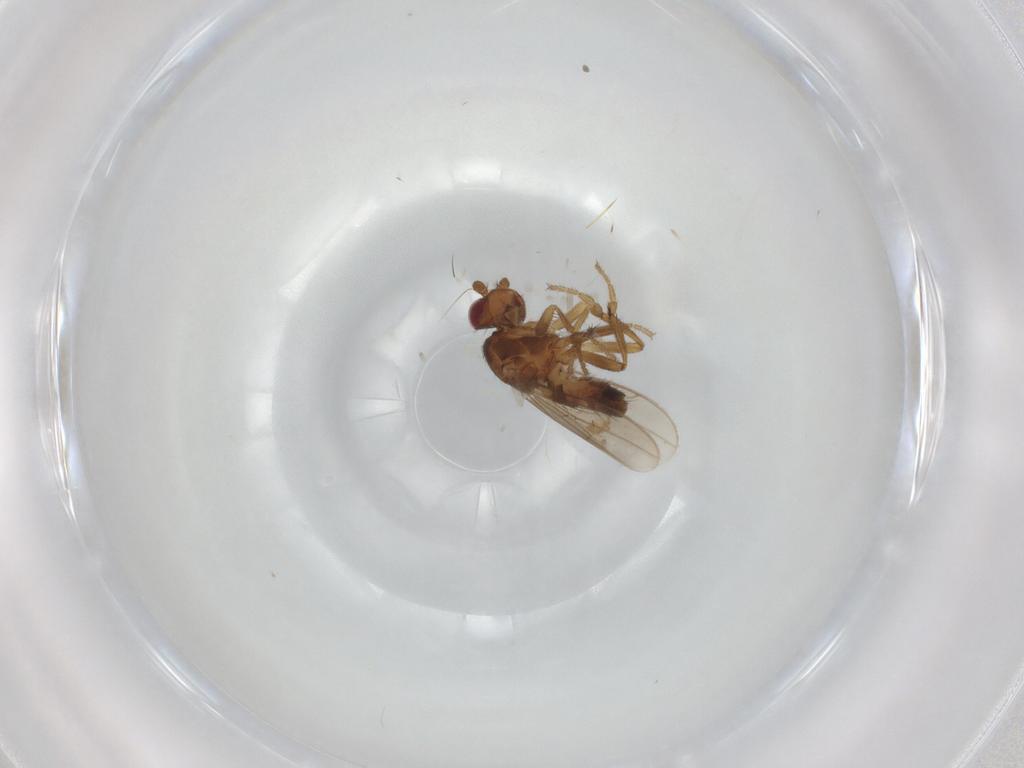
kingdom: Animalia
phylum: Arthropoda
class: Insecta
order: Diptera
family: Sphaeroceridae
